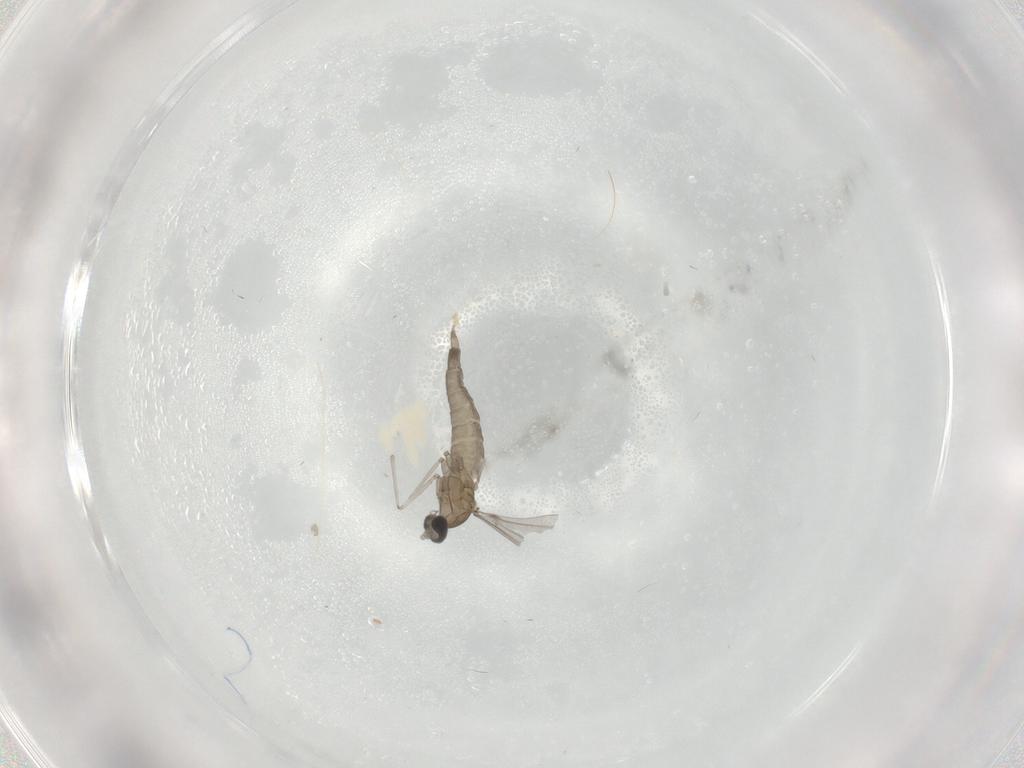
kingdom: Animalia
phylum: Arthropoda
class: Insecta
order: Diptera
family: Cecidomyiidae
